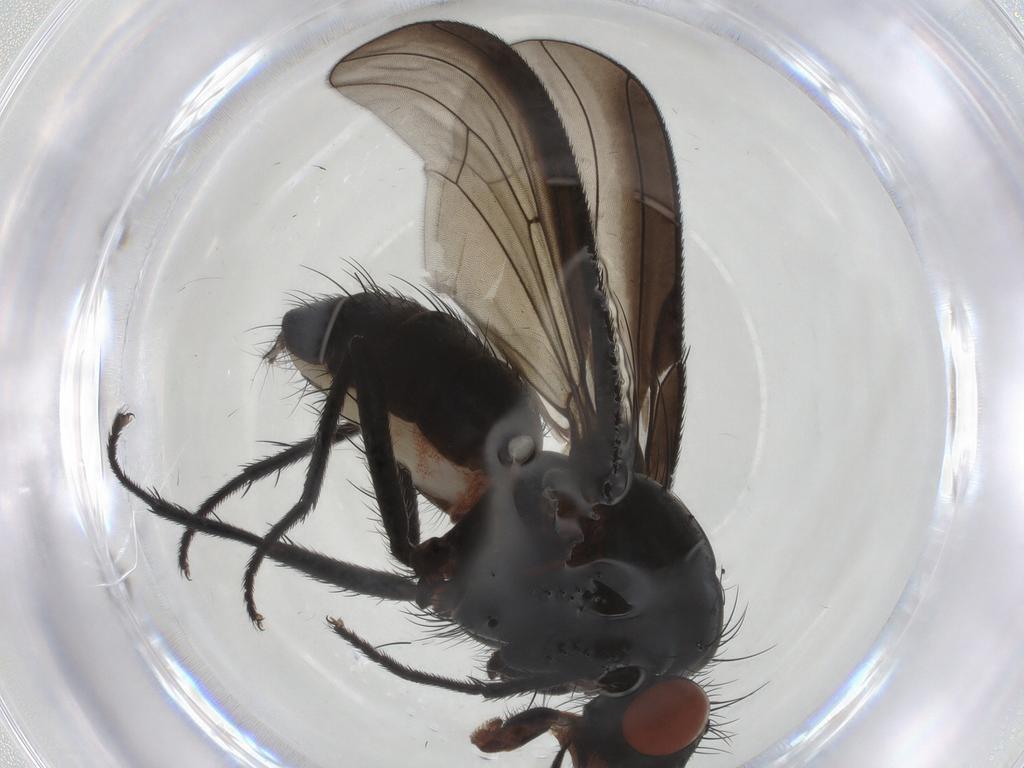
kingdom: Animalia
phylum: Arthropoda
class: Insecta
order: Diptera
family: Anthomyiidae
